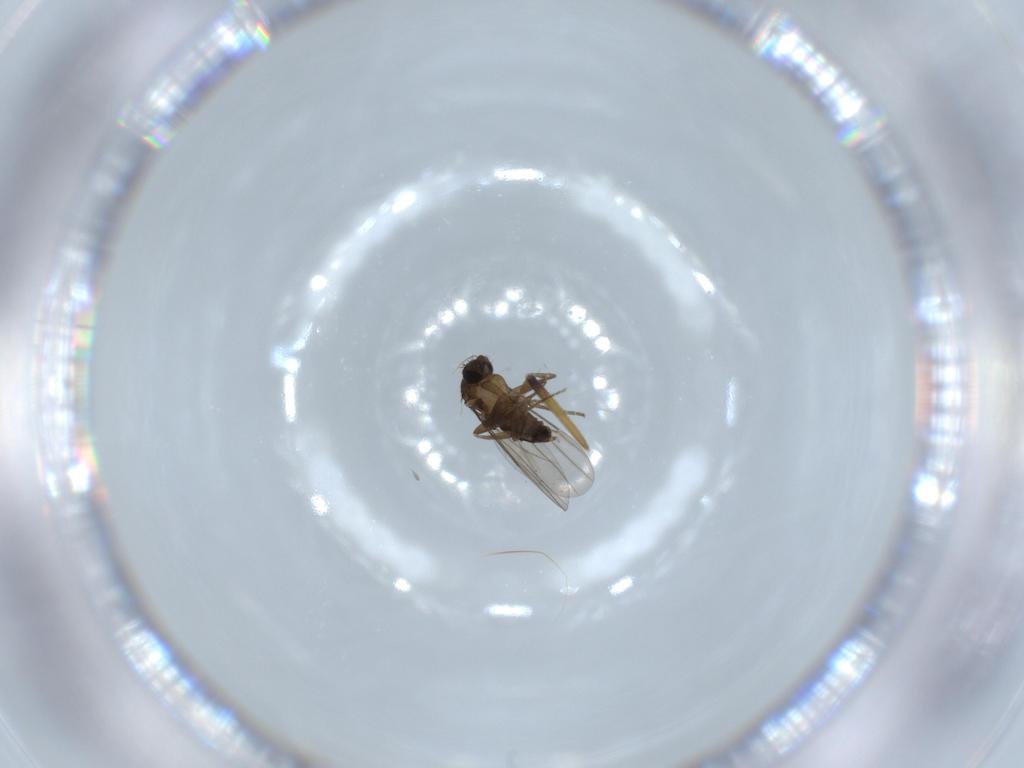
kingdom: Animalia
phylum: Arthropoda
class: Insecta
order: Diptera
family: Phoridae
